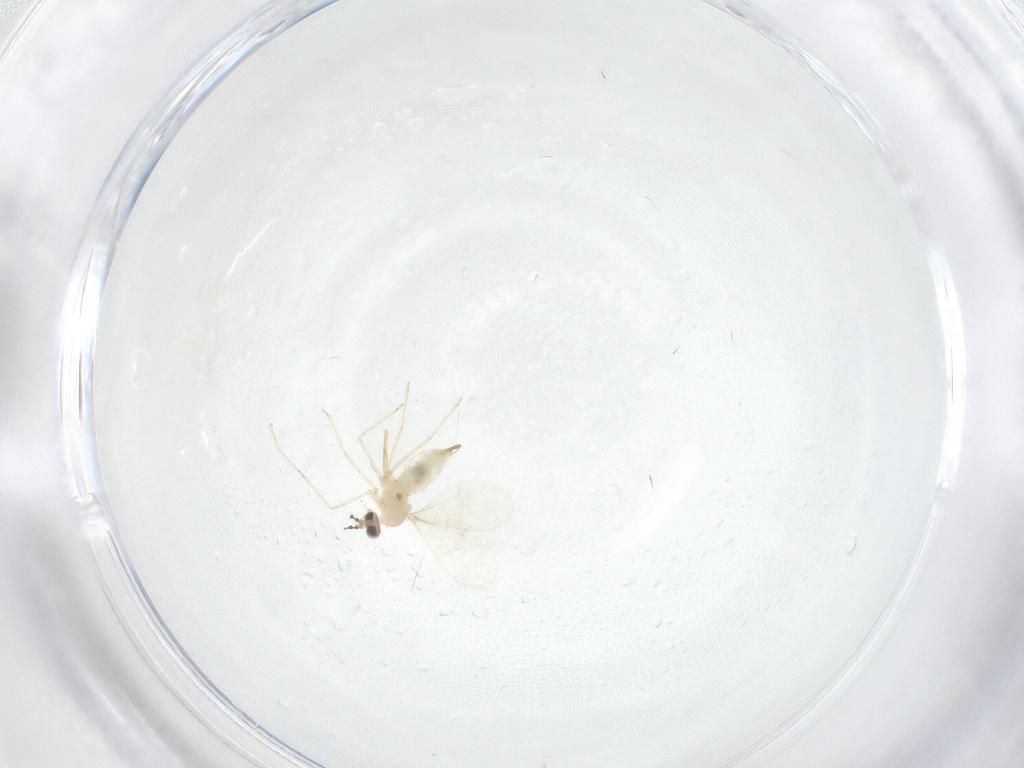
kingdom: Animalia
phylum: Arthropoda
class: Insecta
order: Diptera
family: Hybotidae
